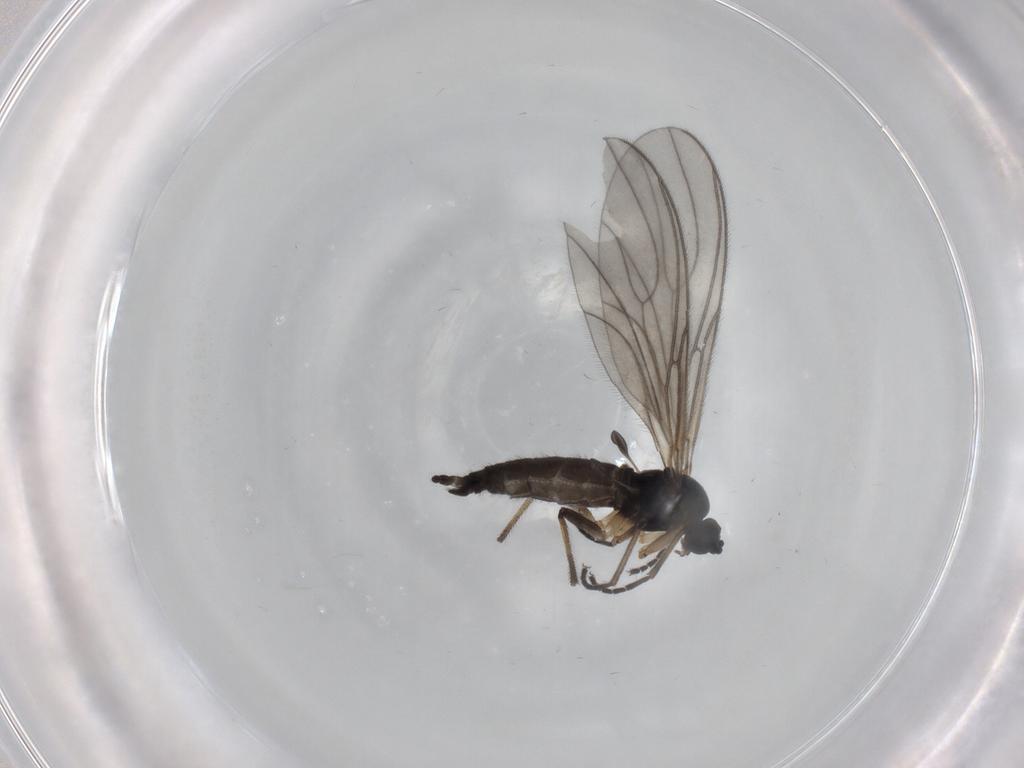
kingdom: Animalia
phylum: Arthropoda
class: Insecta
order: Diptera
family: Sciaridae
